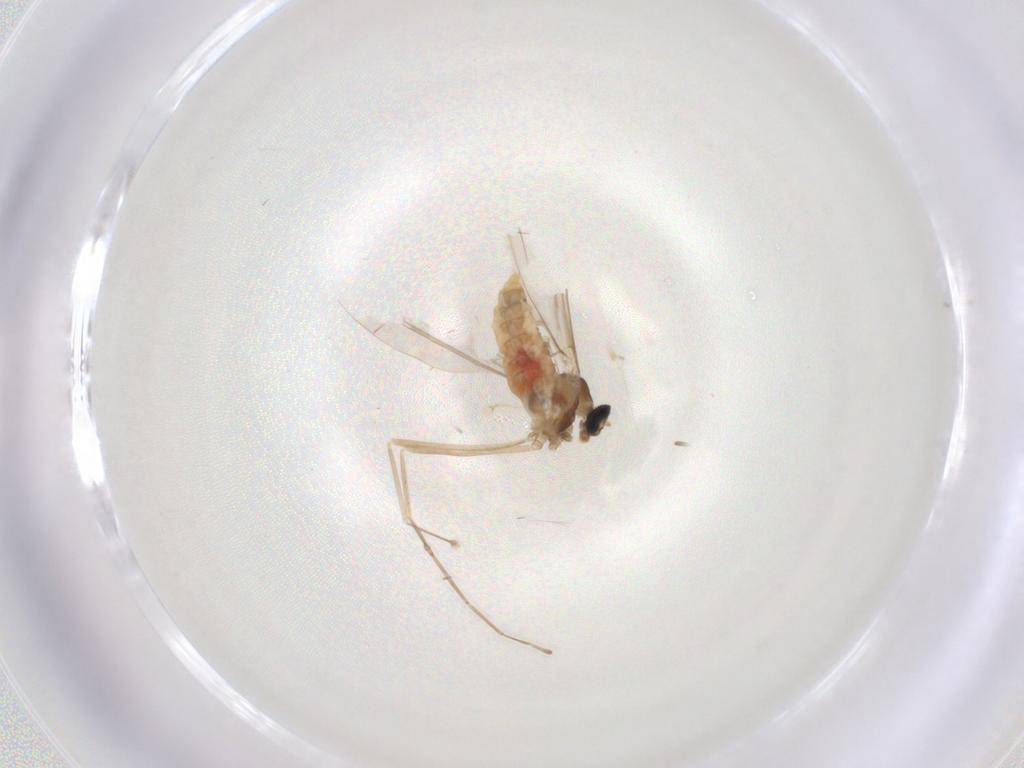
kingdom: Animalia
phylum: Arthropoda
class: Insecta
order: Diptera
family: Cecidomyiidae
